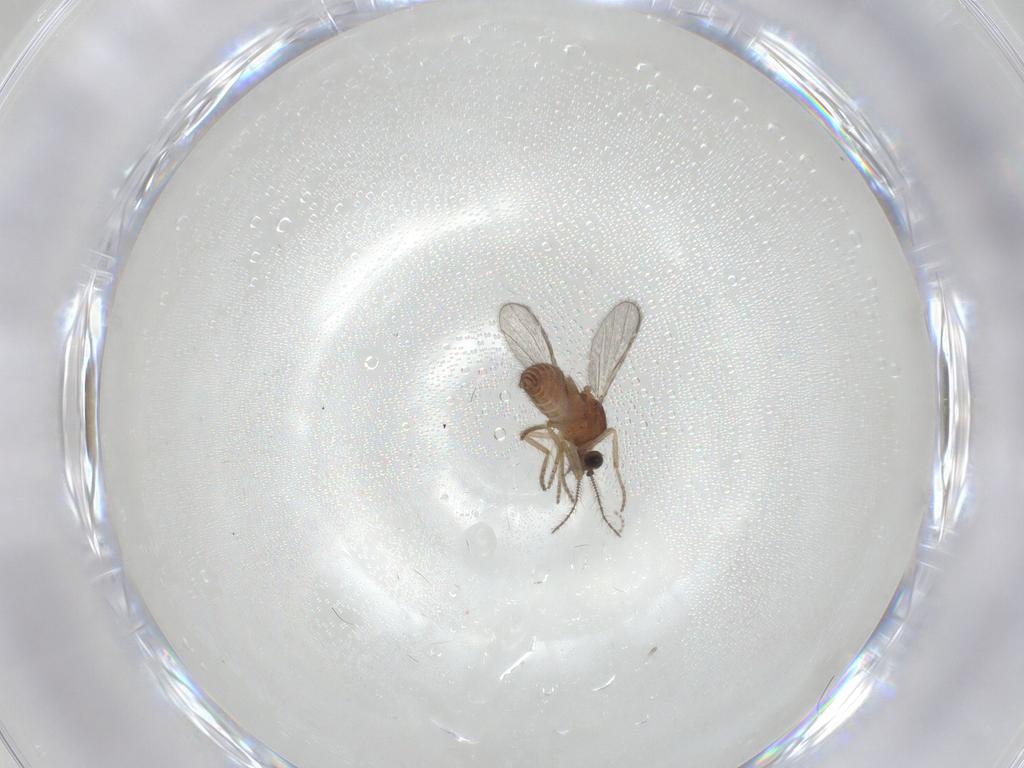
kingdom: Animalia
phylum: Arthropoda
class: Insecta
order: Diptera
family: Ceratopogonidae
